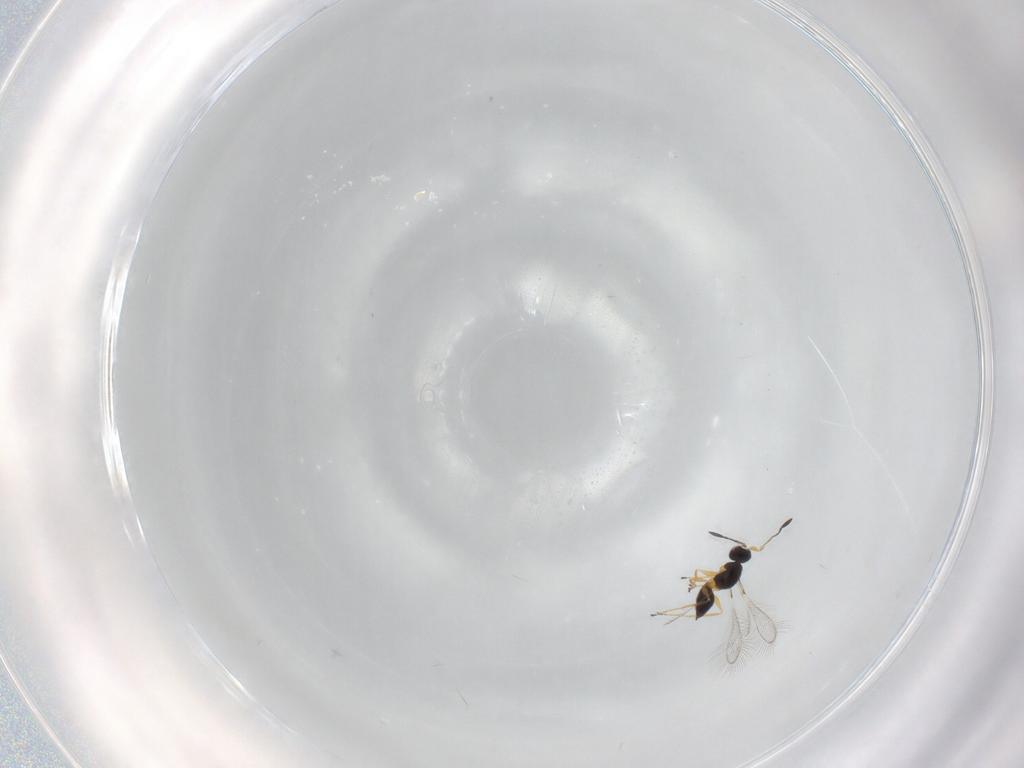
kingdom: Animalia
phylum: Arthropoda
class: Insecta
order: Hymenoptera
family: Mymaridae
